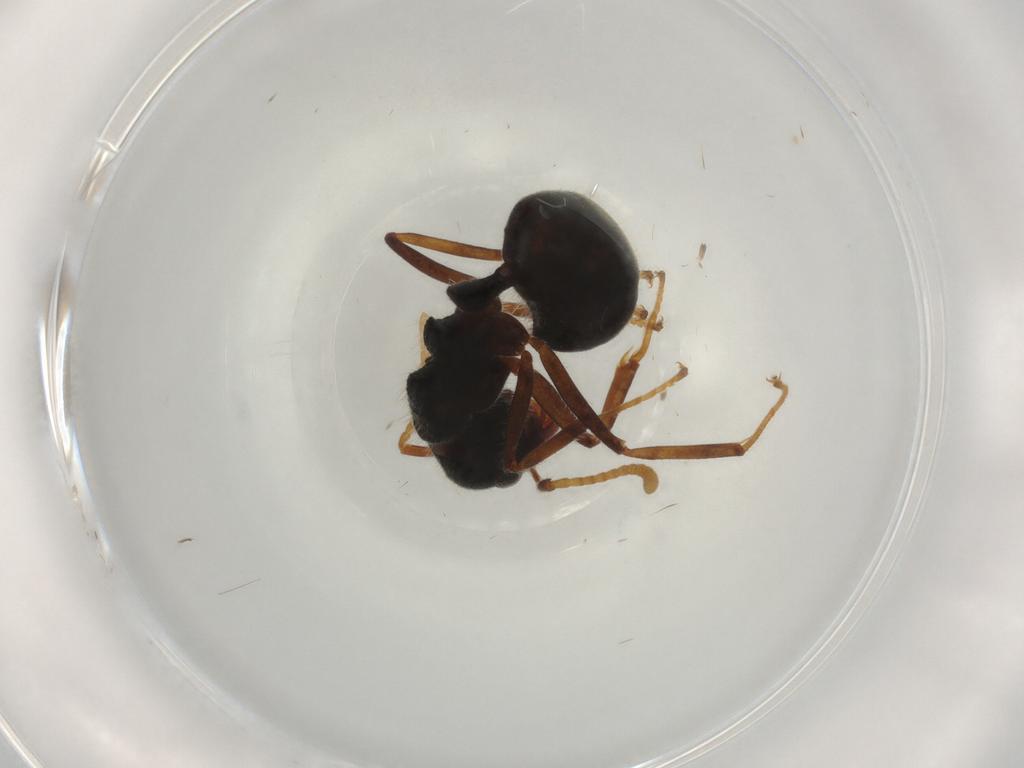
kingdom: Animalia
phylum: Arthropoda
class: Insecta
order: Hymenoptera
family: Formicidae
